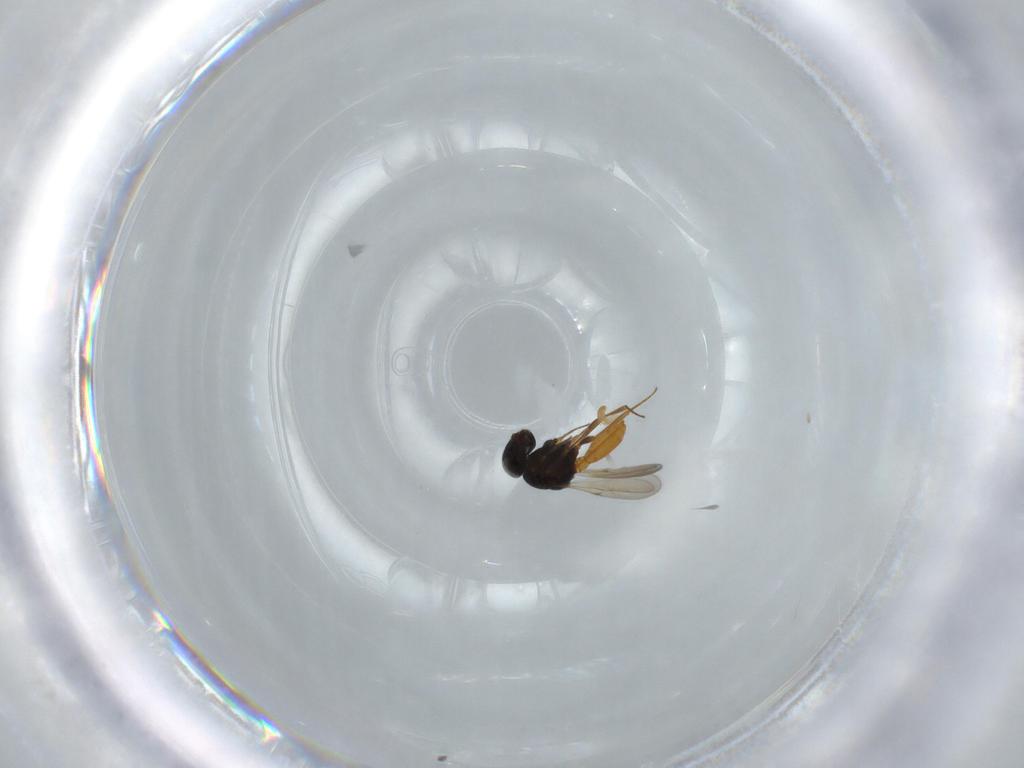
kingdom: Animalia
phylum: Arthropoda
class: Insecta
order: Hymenoptera
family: Scelionidae
